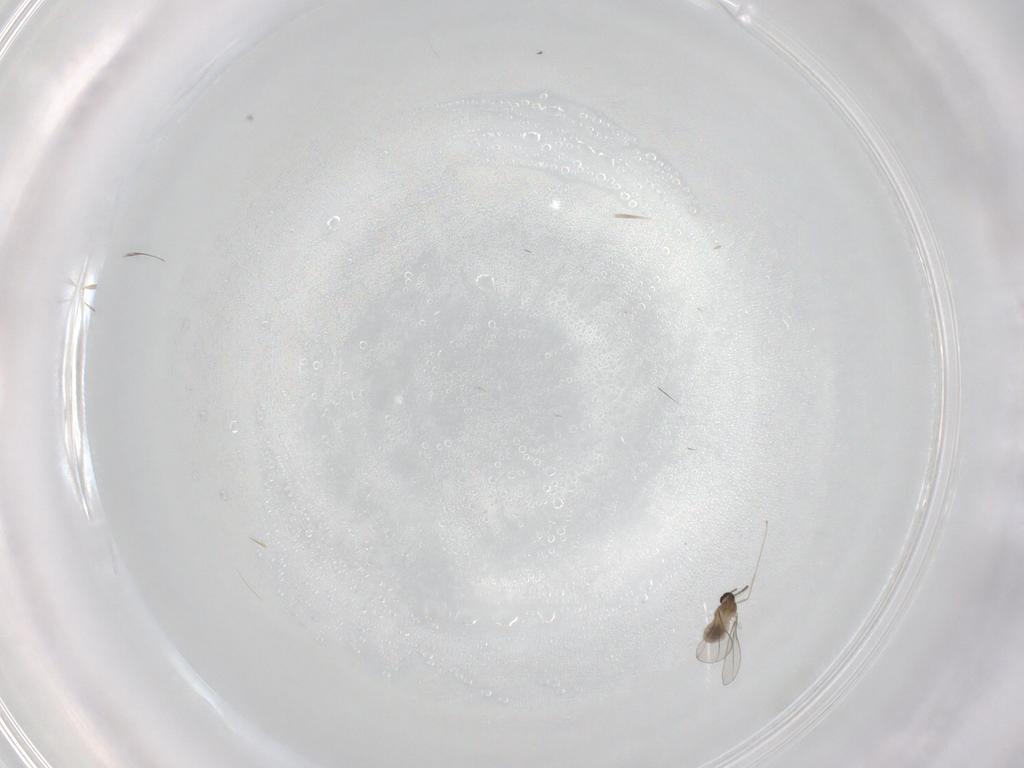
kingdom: Animalia
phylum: Arthropoda
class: Insecta
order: Diptera
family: Cecidomyiidae
